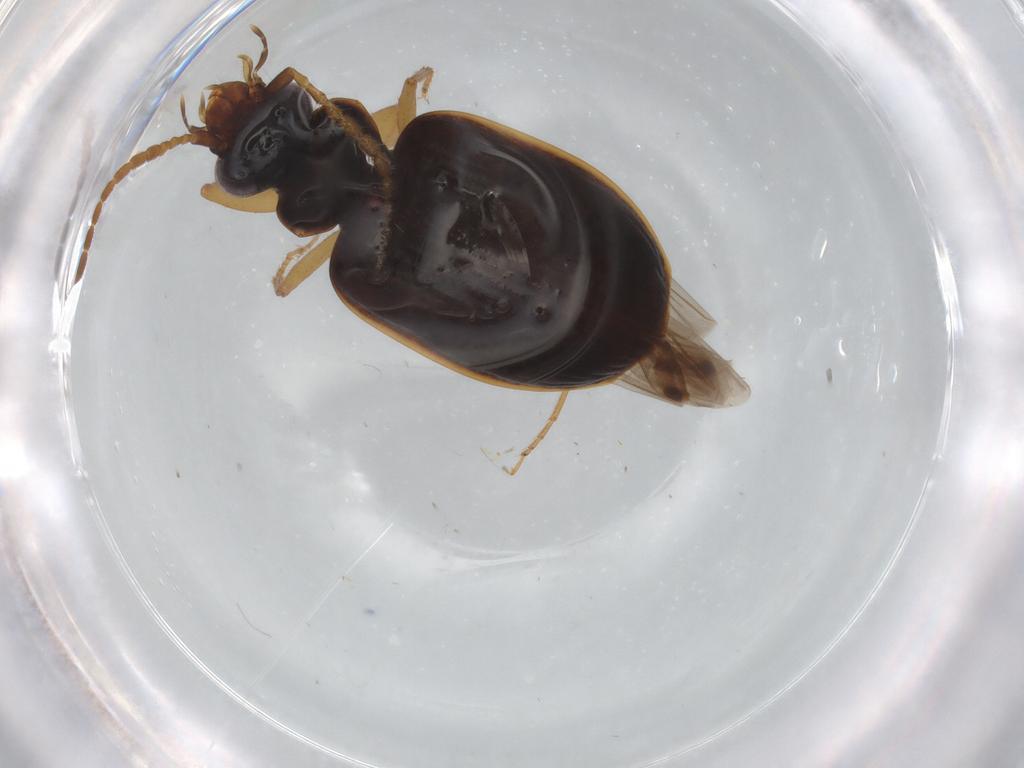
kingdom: Animalia
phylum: Arthropoda
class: Insecta
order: Coleoptera
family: Carabidae
